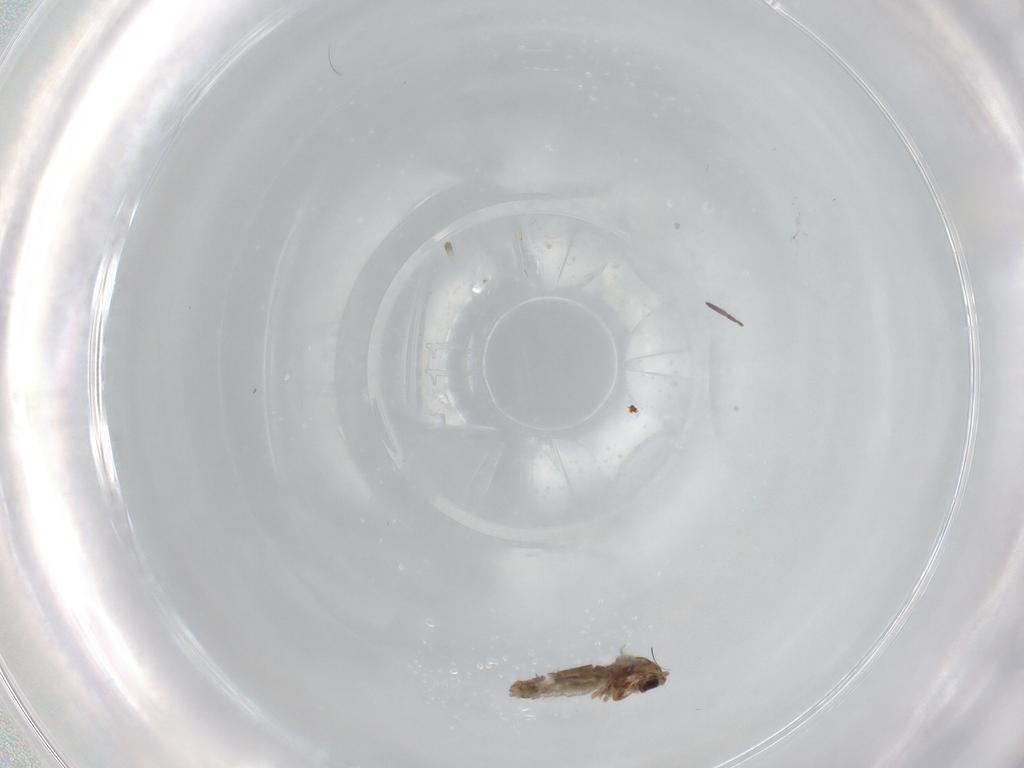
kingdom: Animalia
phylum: Arthropoda
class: Insecta
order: Diptera
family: Chironomidae
